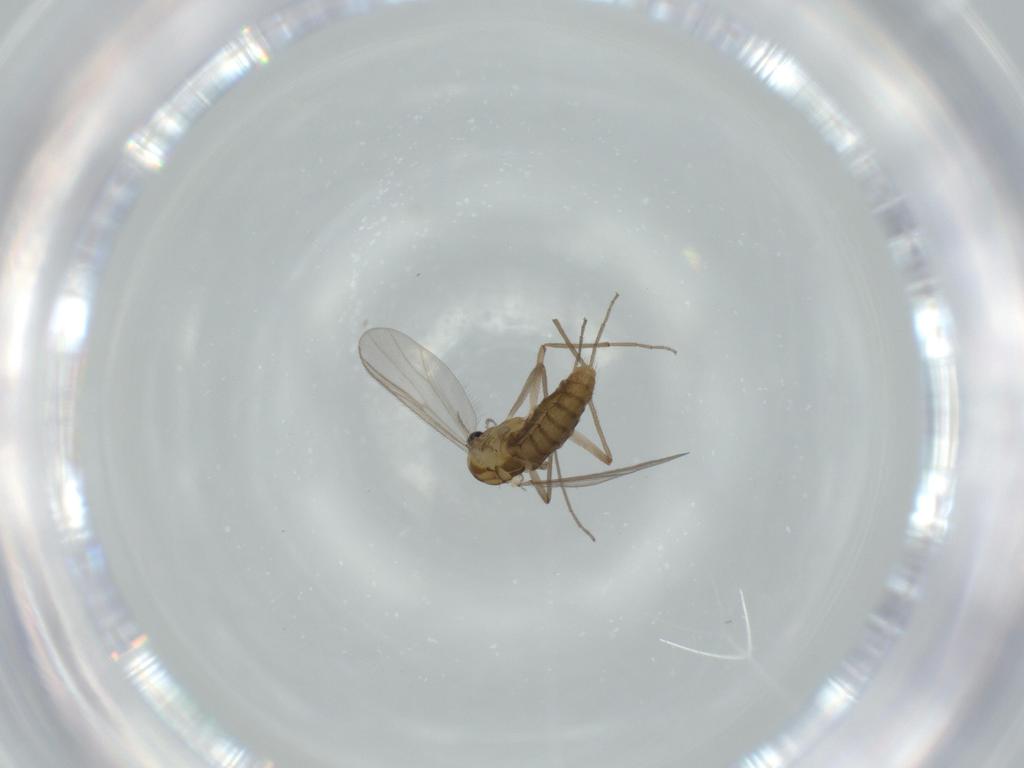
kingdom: Animalia
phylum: Arthropoda
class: Insecta
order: Diptera
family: Chironomidae
